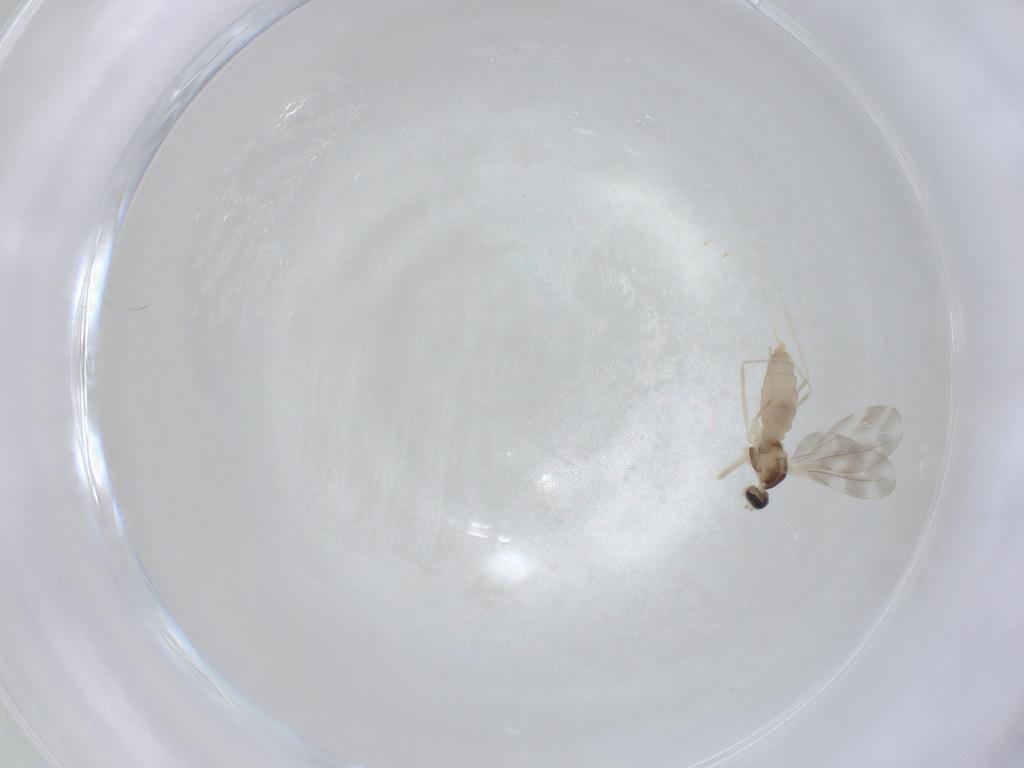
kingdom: Animalia
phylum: Arthropoda
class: Insecta
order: Diptera
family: Cecidomyiidae
